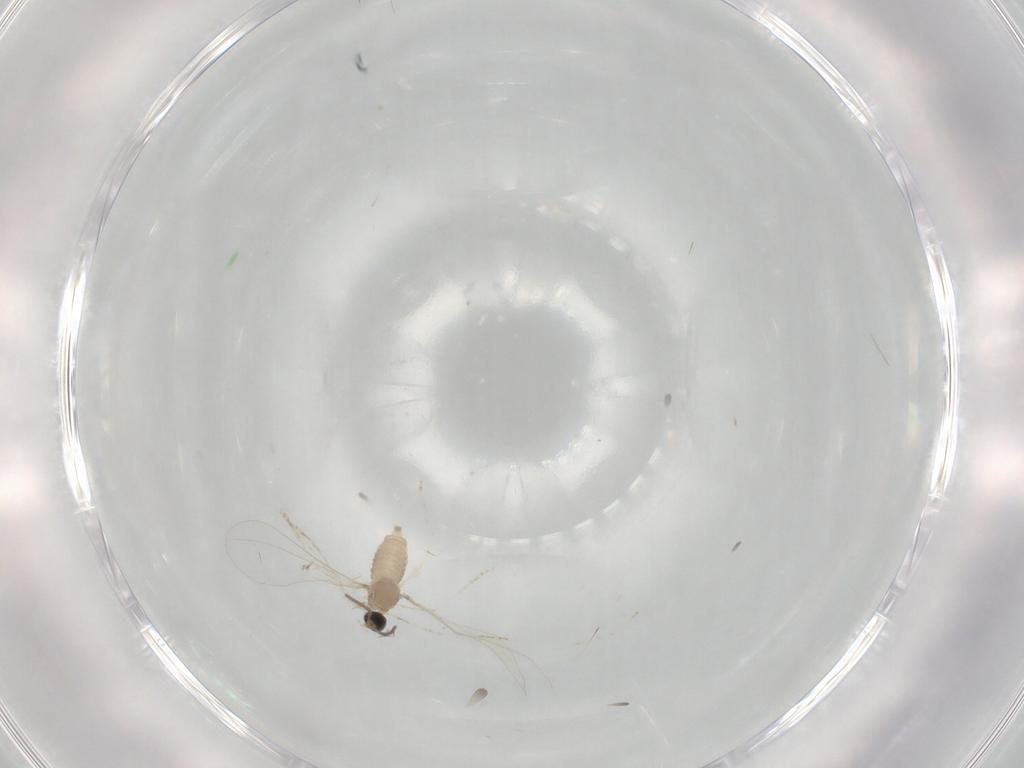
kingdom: Animalia
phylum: Arthropoda
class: Insecta
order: Diptera
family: Cecidomyiidae
